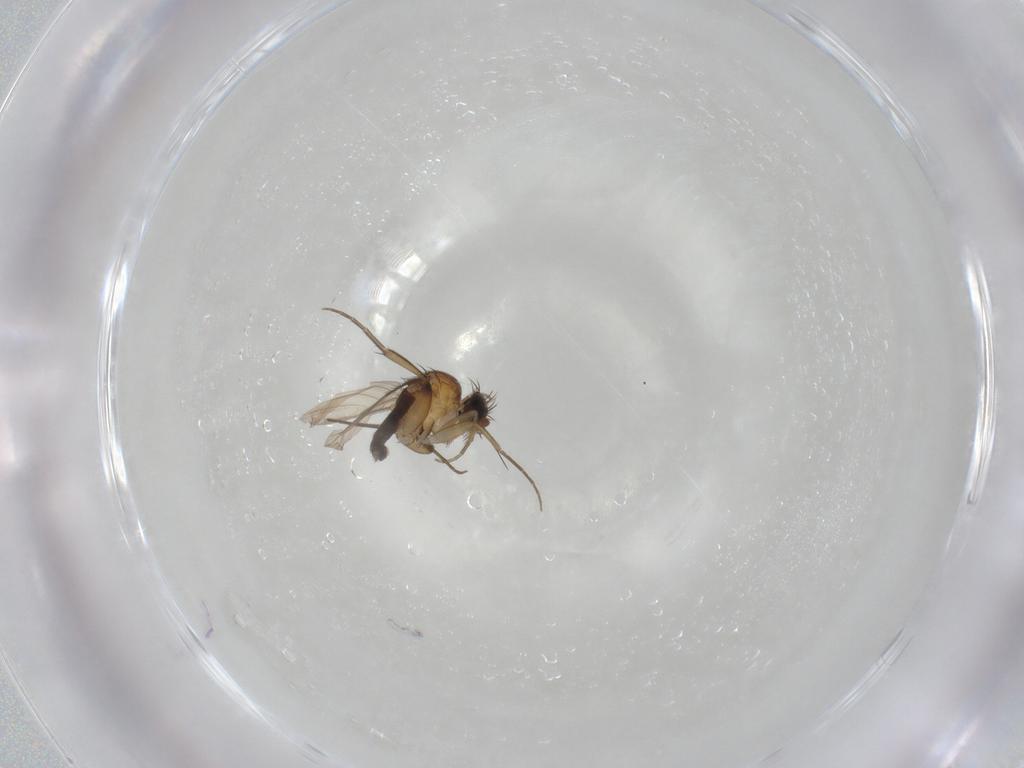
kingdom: Animalia
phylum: Arthropoda
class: Insecta
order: Diptera
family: Phoridae
